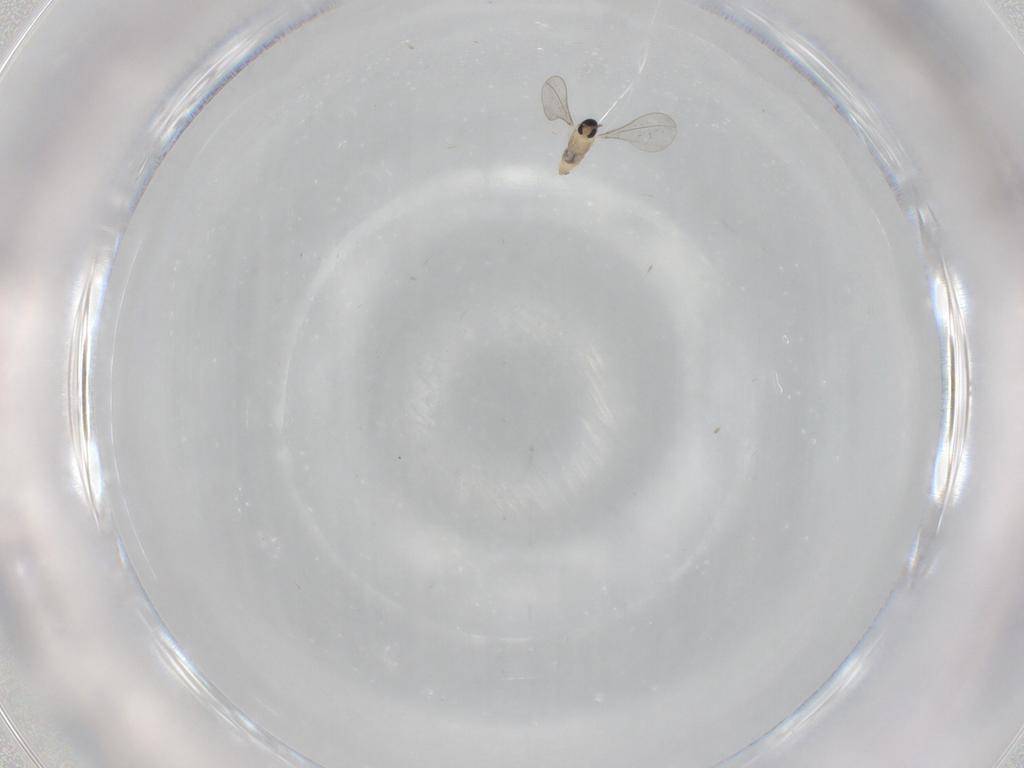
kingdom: Animalia
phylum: Arthropoda
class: Insecta
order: Diptera
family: Cecidomyiidae
